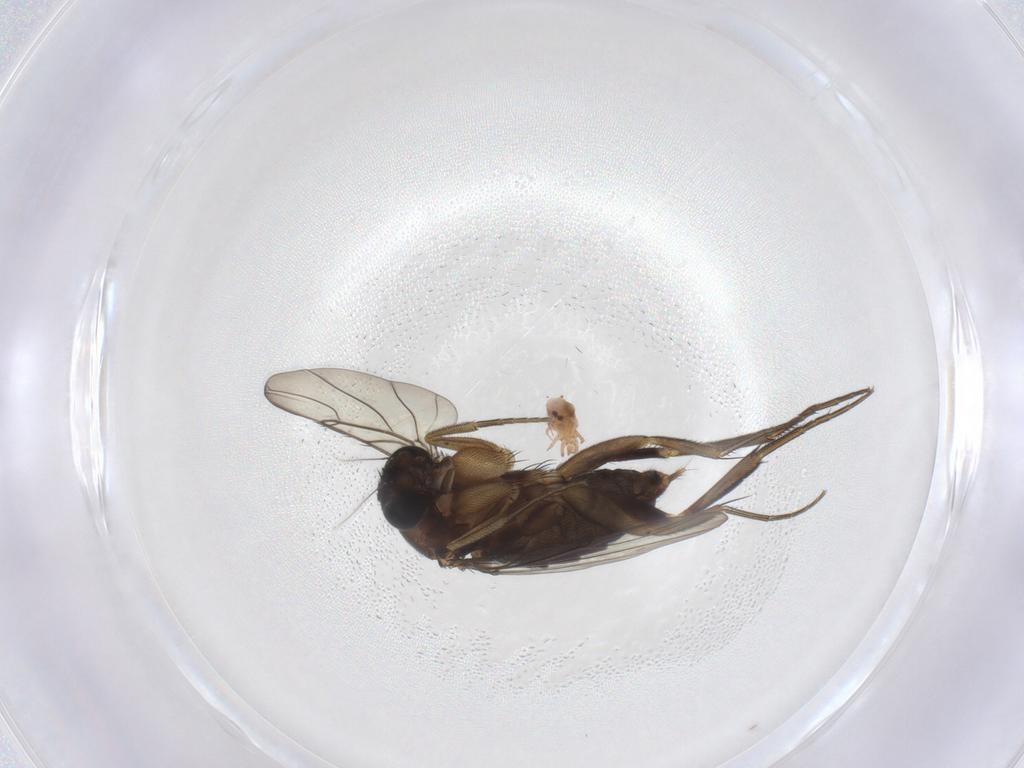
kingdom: Animalia
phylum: Arthropoda
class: Insecta
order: Diptera
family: Phoridae
